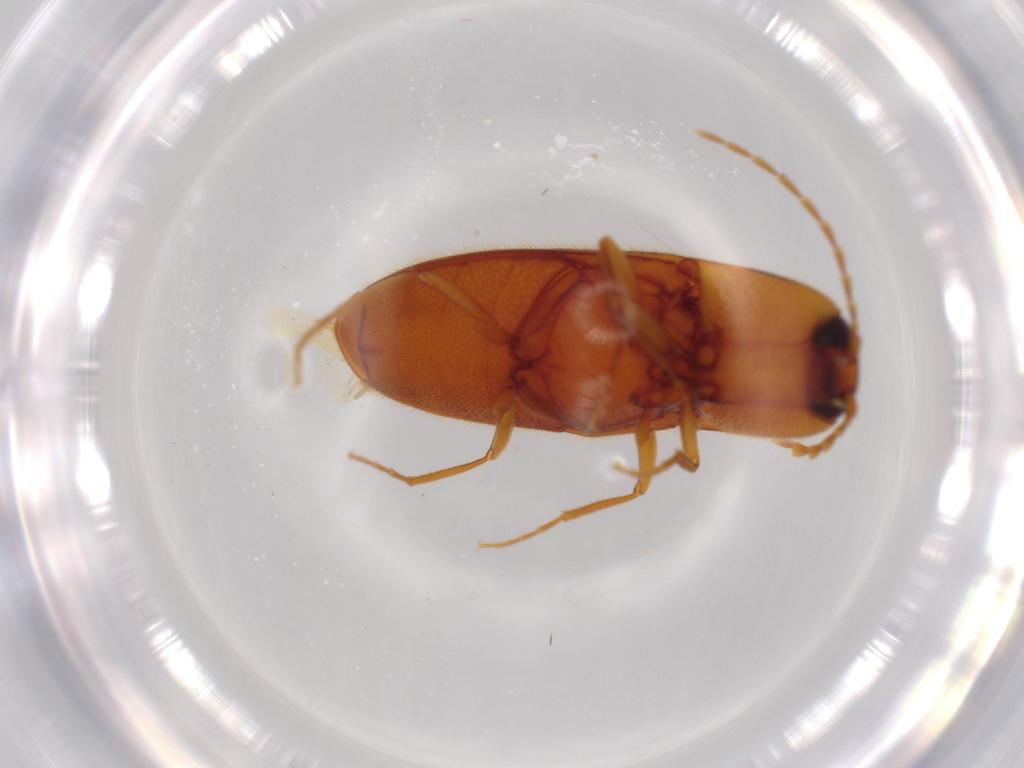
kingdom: Animalia
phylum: Arthropoda
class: Insecta
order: Coleoptera
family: Elateridae
